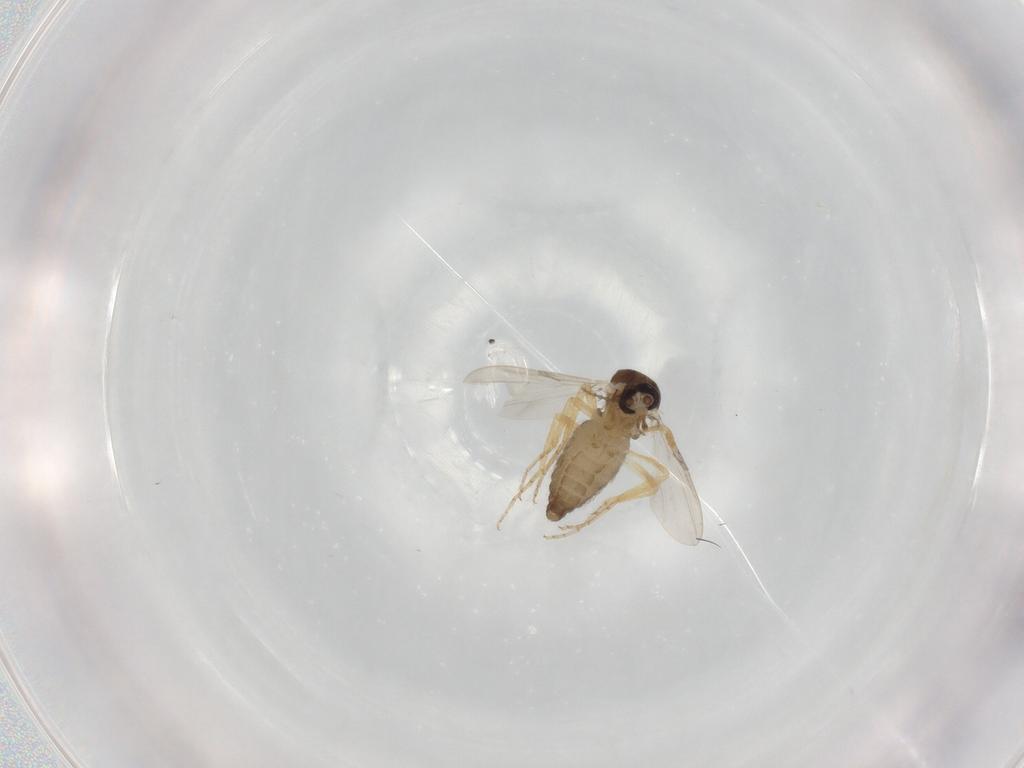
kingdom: Animalia
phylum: Arthropoda
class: Insecta
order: Diptera
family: Ceratopogonidae
